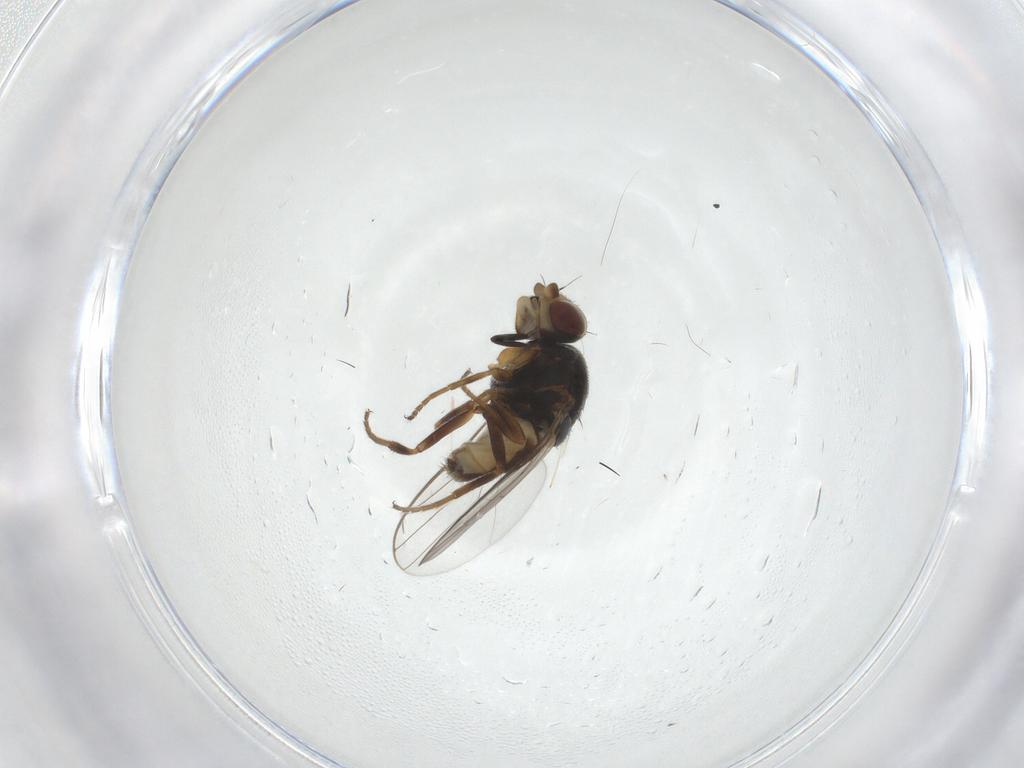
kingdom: Animalia
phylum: Arthropoda
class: Insecta
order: Diptera
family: Chloropidae
